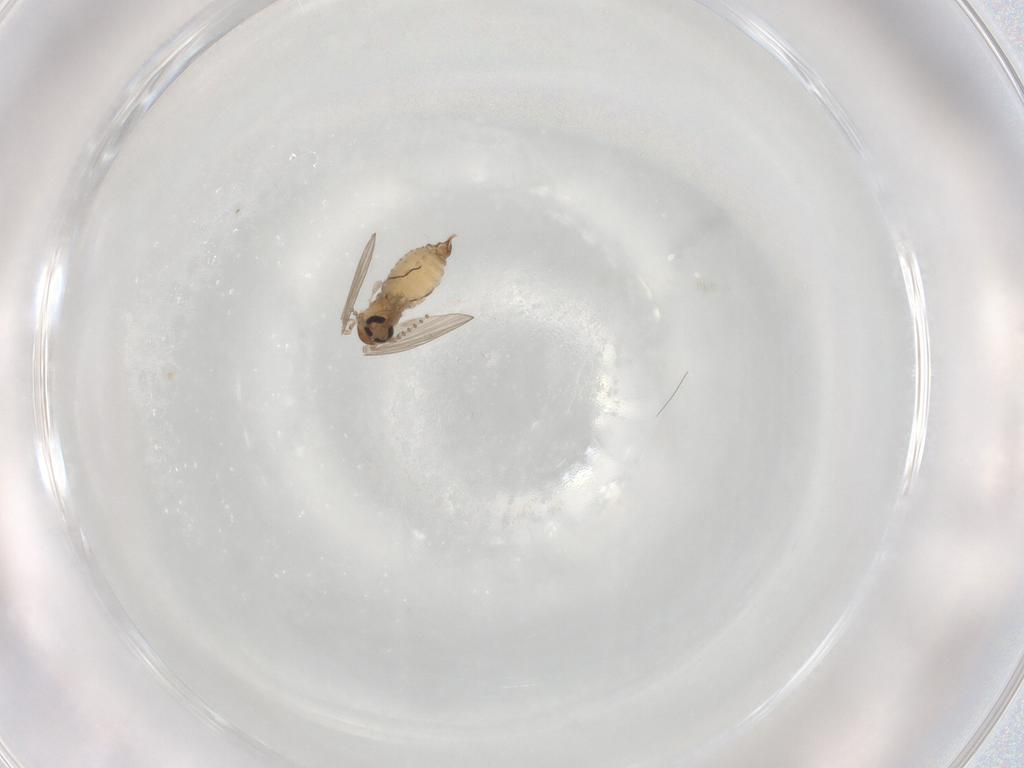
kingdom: Animalia
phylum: Arthropoda
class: Insecta
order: Diptera
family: Psychodidae
